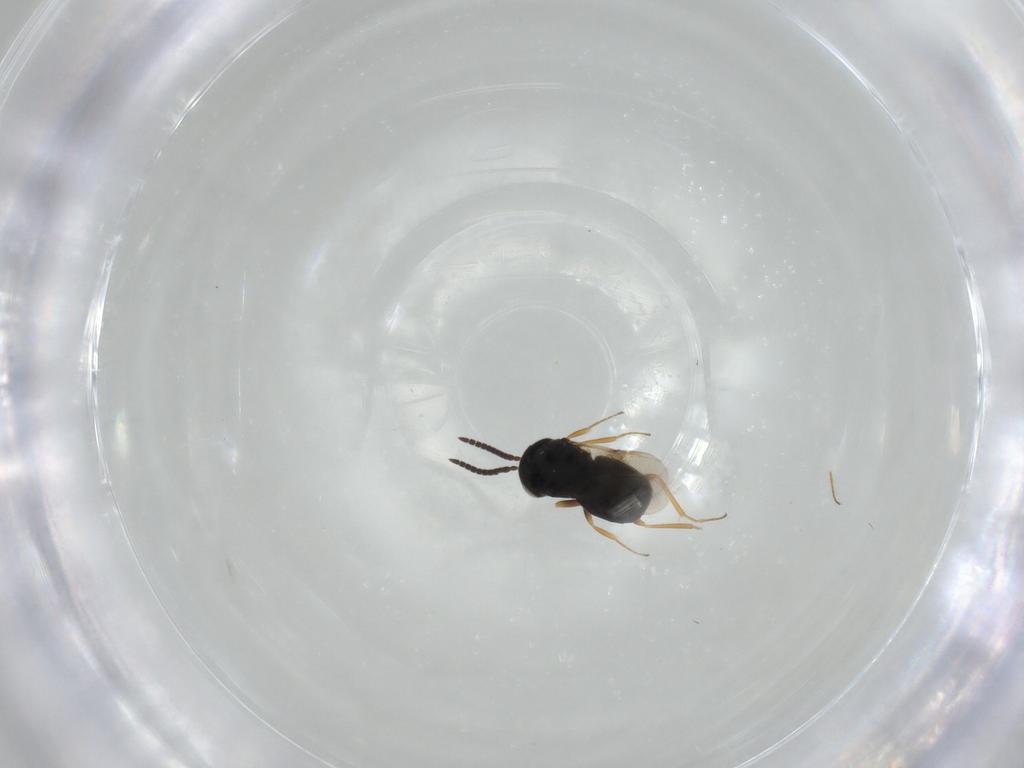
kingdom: Animalia
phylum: Arthropoda
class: Insecta
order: Hymenoptera
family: Scelionidae
